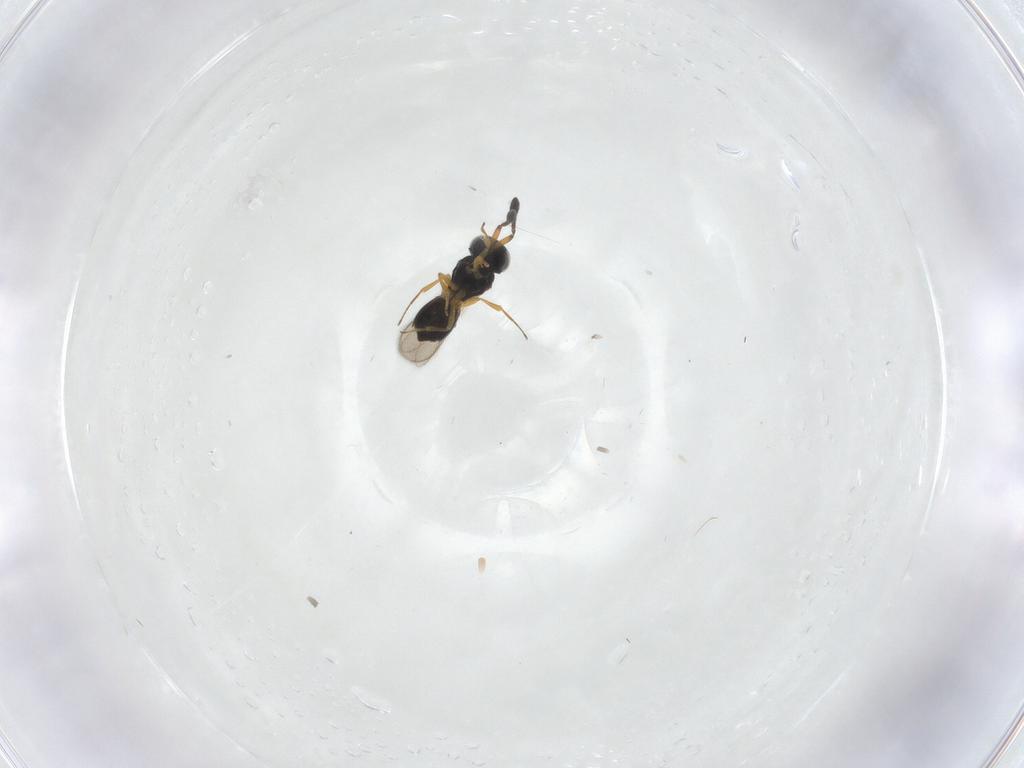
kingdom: Animalia
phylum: Arthropoda
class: Insecta
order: Hymenoptera
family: Scelionidae
